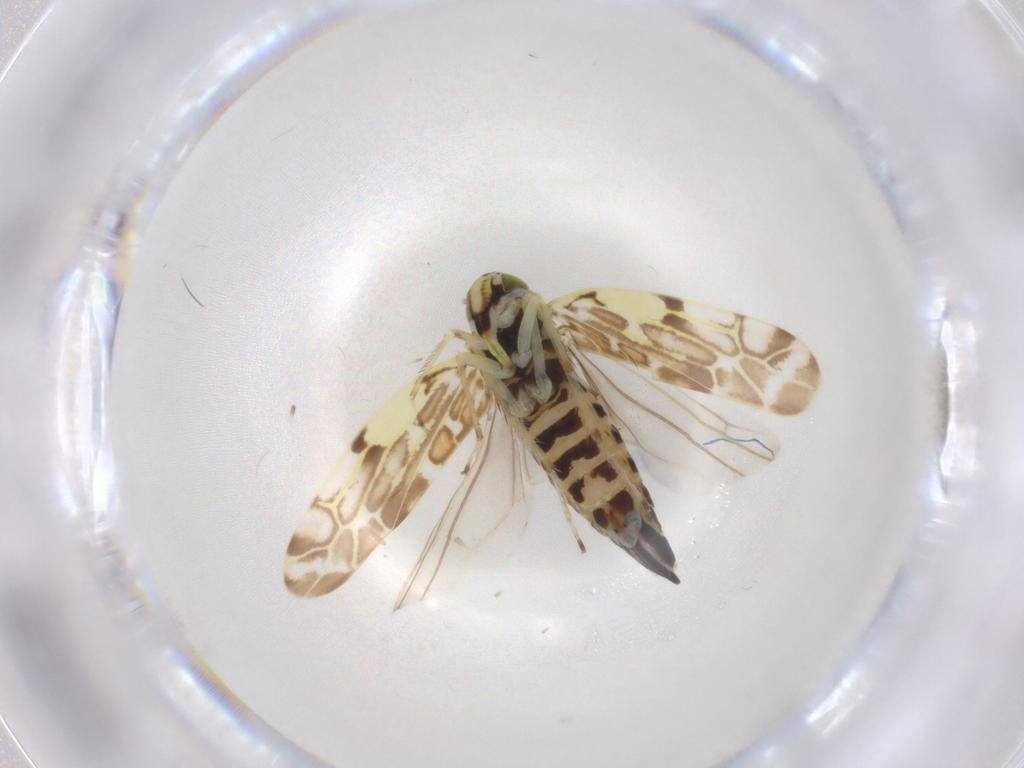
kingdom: Animalia
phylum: Arthropoda
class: Insecta
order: Hemiptera
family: Cicadellidae
